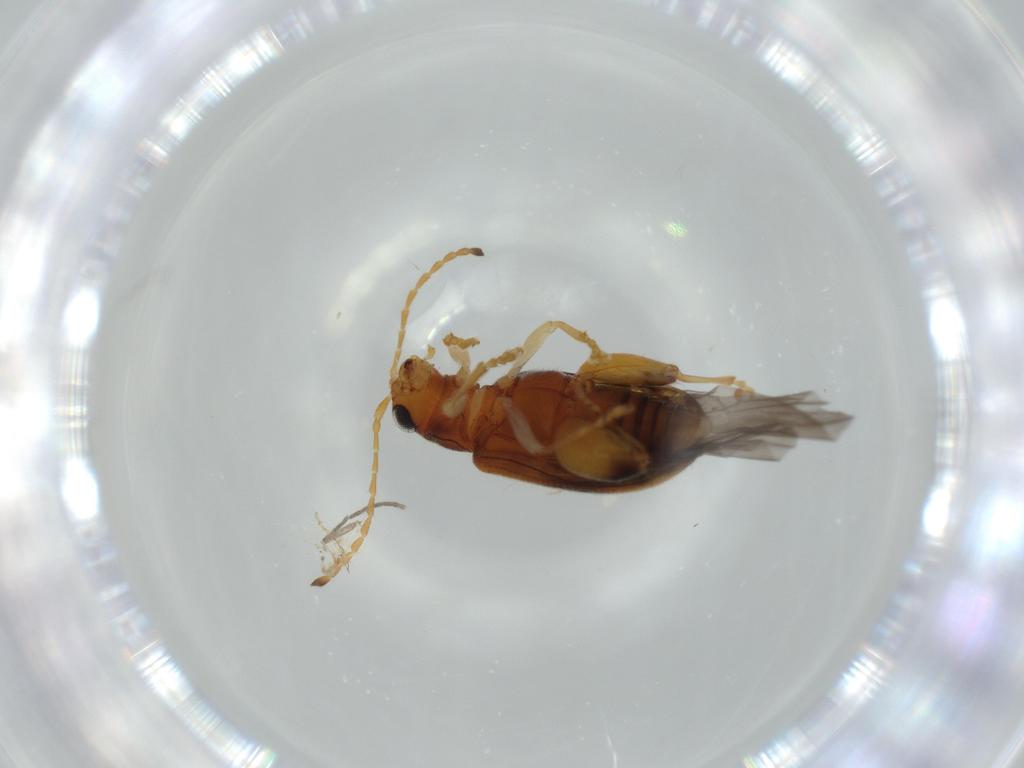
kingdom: Animalia
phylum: Arthropoda
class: Insecta
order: Coleoptera
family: Chrysomelidae
